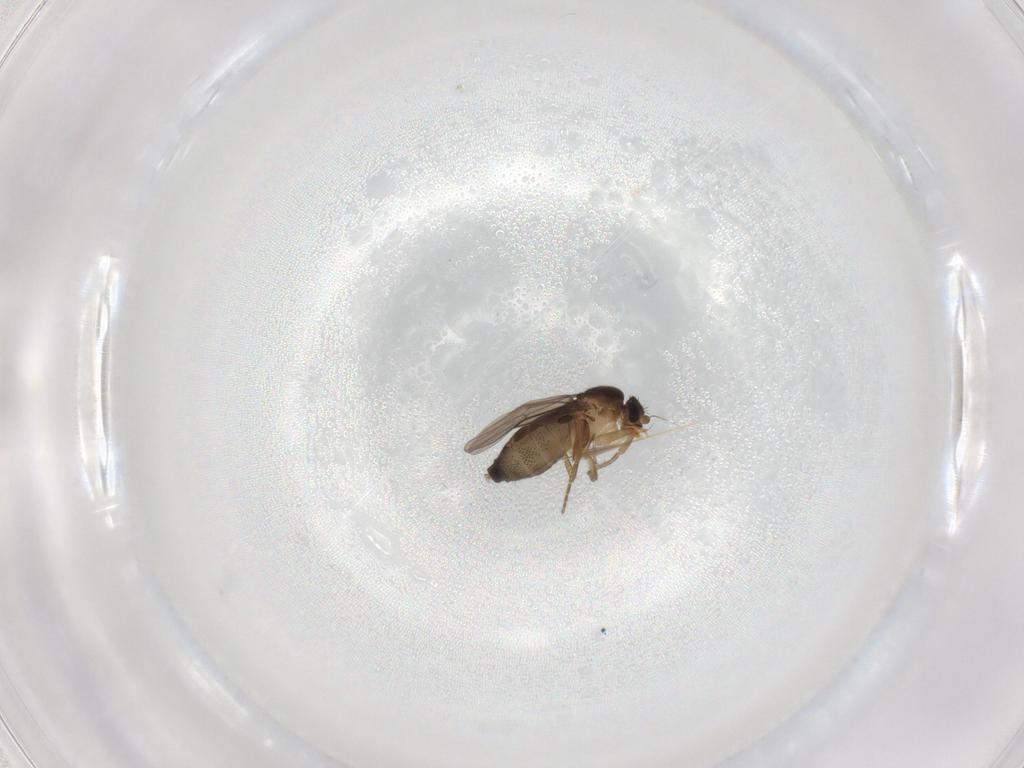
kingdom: Animalia
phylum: Arthropoda
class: Insecta
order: Diptera
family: Phoridae
